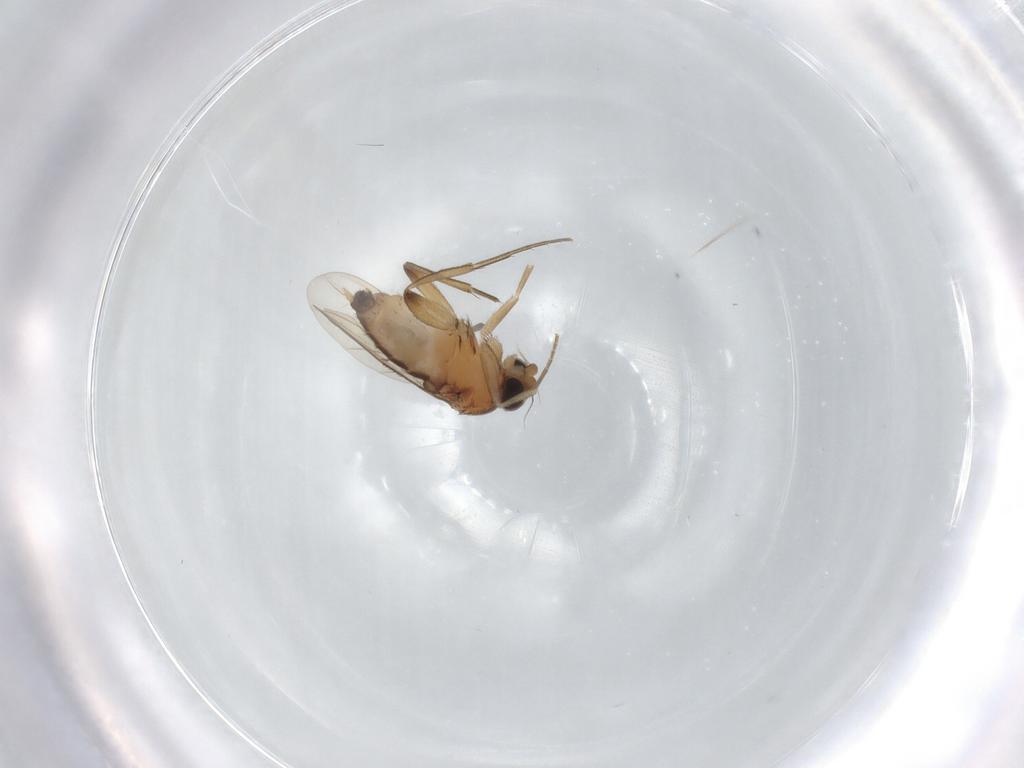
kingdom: Animalia
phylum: Arthropoda
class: Insecta
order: Diptera
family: Phoridae
